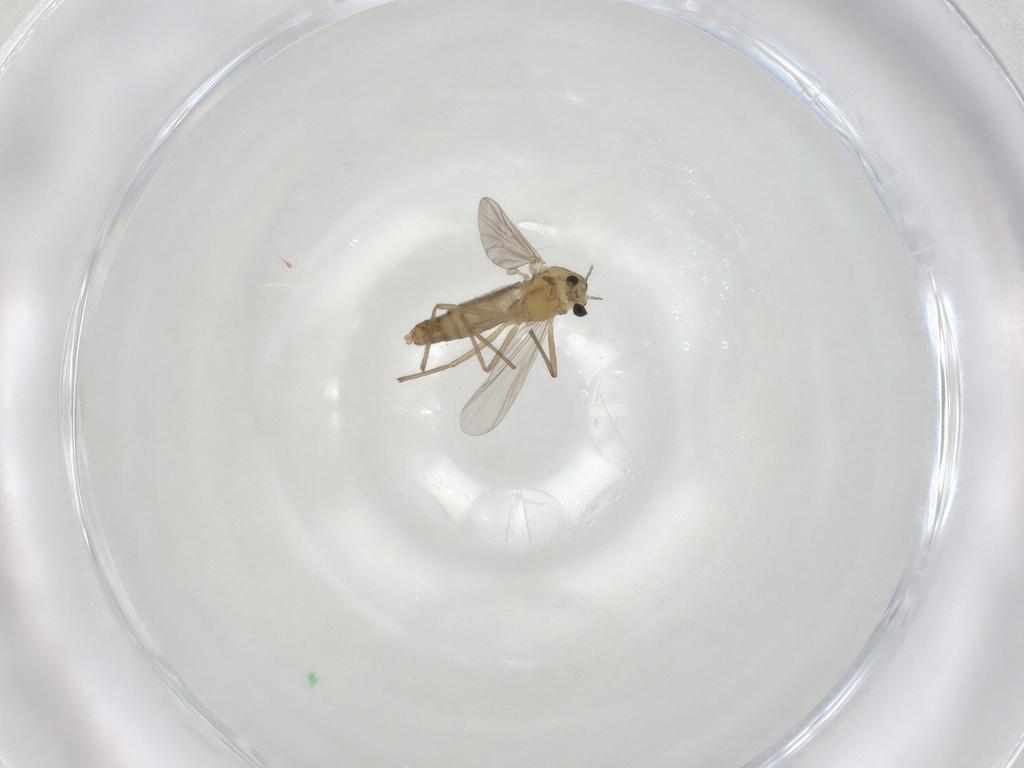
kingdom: Animalia
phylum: Arthropoda
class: Insecta
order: Diptera
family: Chironomidae
